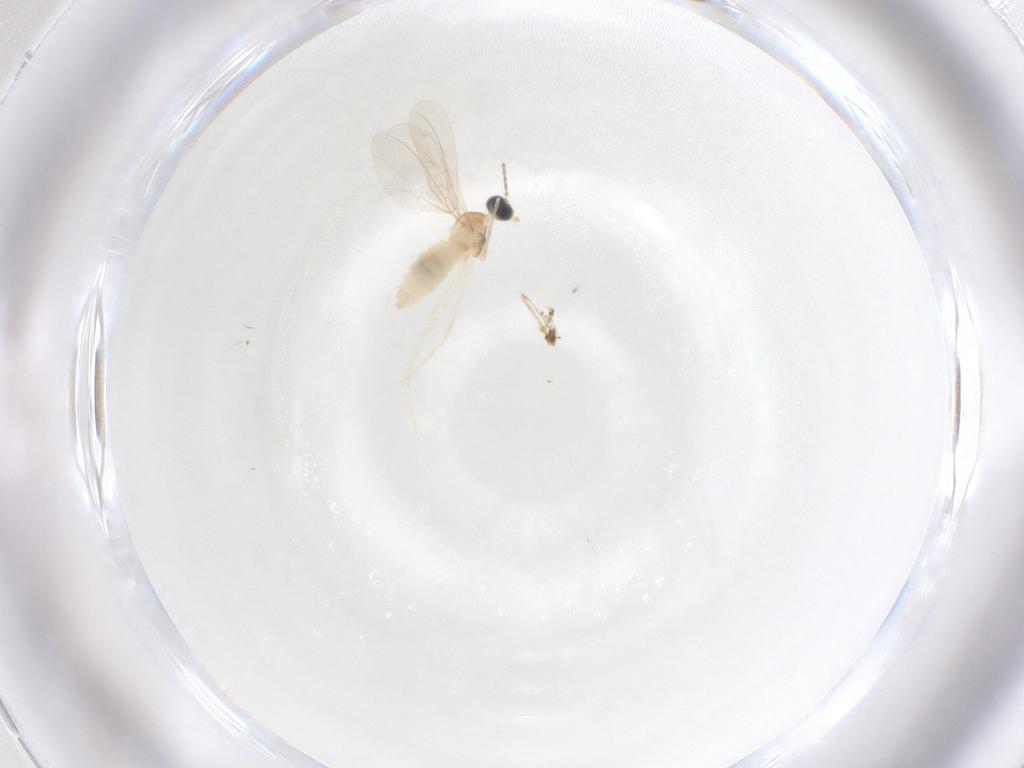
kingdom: Animalia
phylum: Arthropoda
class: Insecta
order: Diptera
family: Cecidomyiidae
